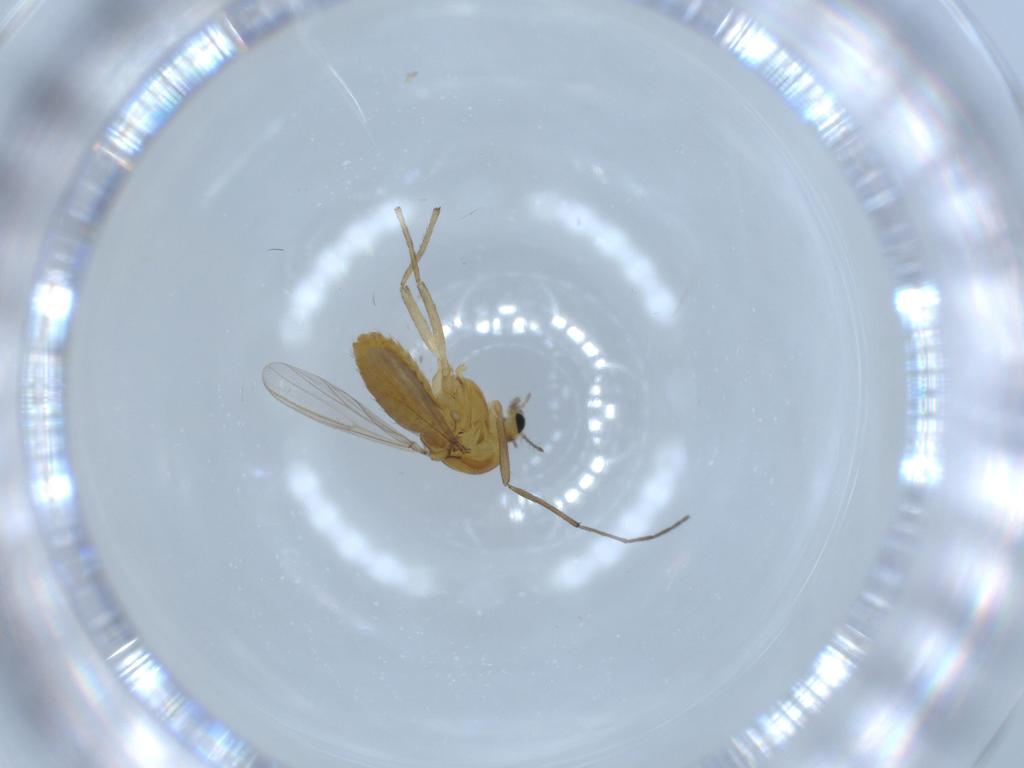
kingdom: Animalia
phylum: Arthropoda
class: Insecta
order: Diptera
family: Chironomidae
